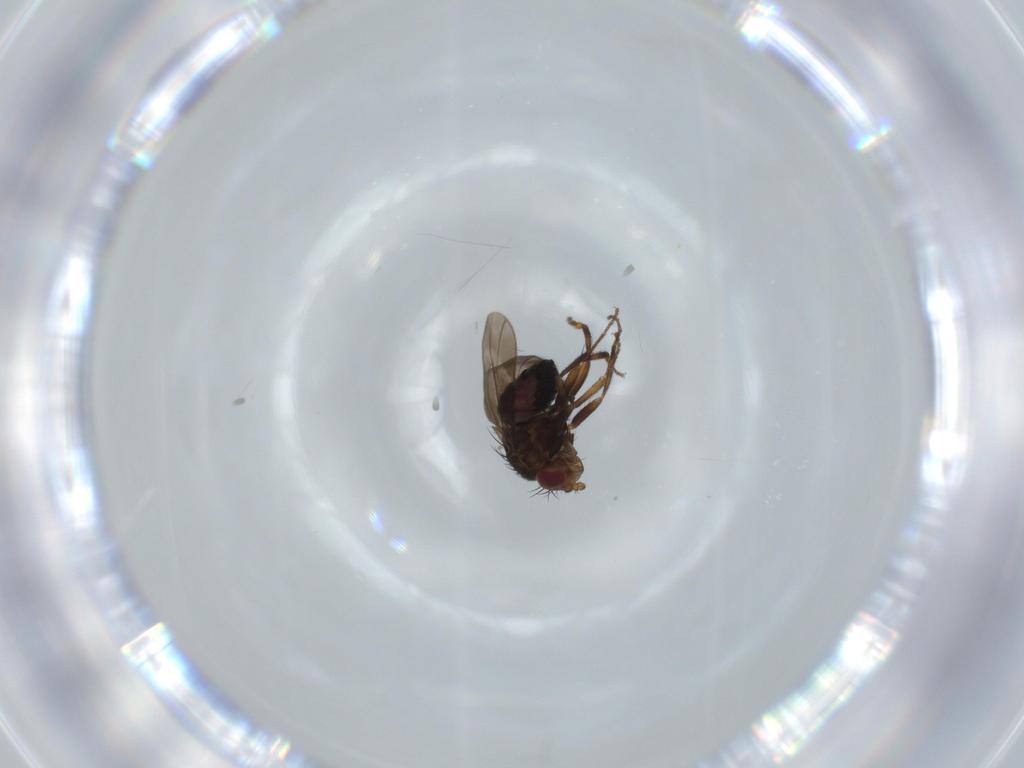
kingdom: Animalia
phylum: Arthropoda
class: Insecta
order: Diptera
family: Sphaeroceridae
